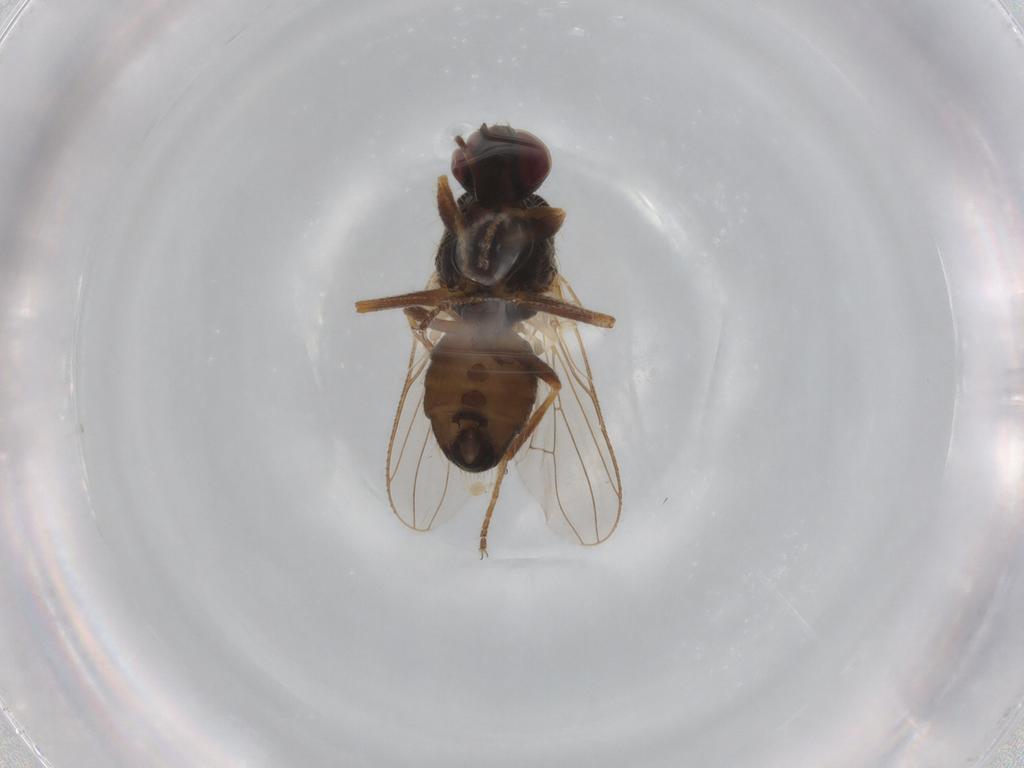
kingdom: Animalia
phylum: Arthropoda
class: Insecta
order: Diptera
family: Muscidae
